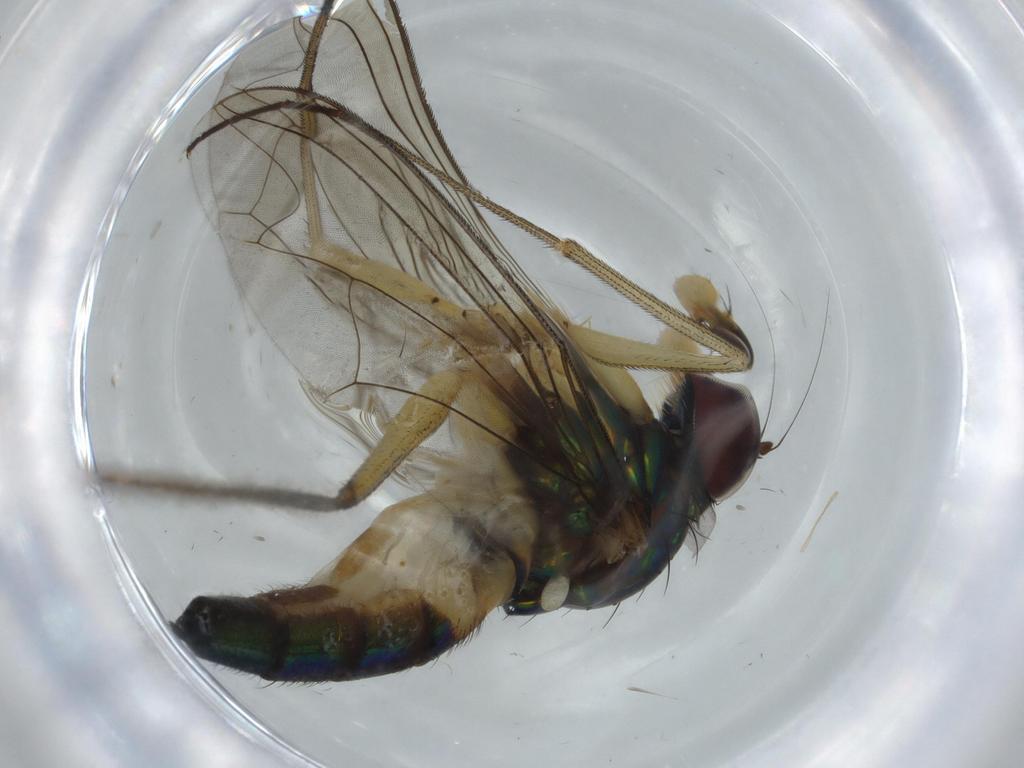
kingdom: Animalia
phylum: Arthropoda
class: Insecta
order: Diptera
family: Dolichopodidae
